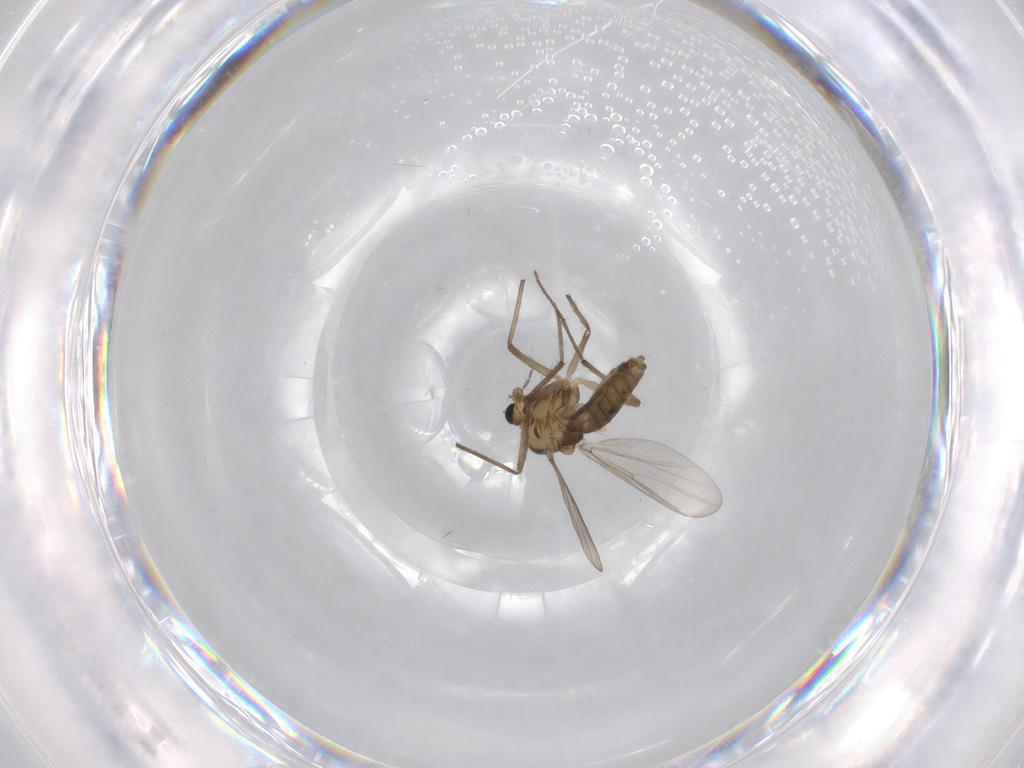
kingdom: Animalia
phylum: Arthropoda
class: Insecta
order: Diptera
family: Chironomidae
